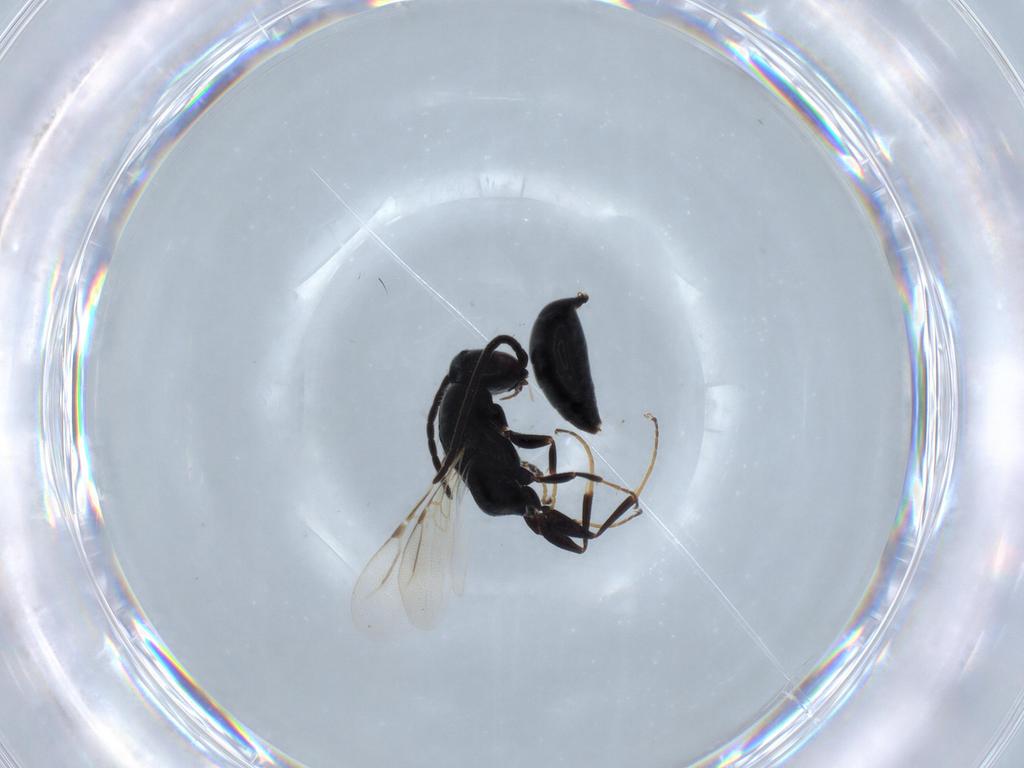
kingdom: Animalia
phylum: Arthropoda
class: Insecta
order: Hymenoptera
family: Bethylidae
